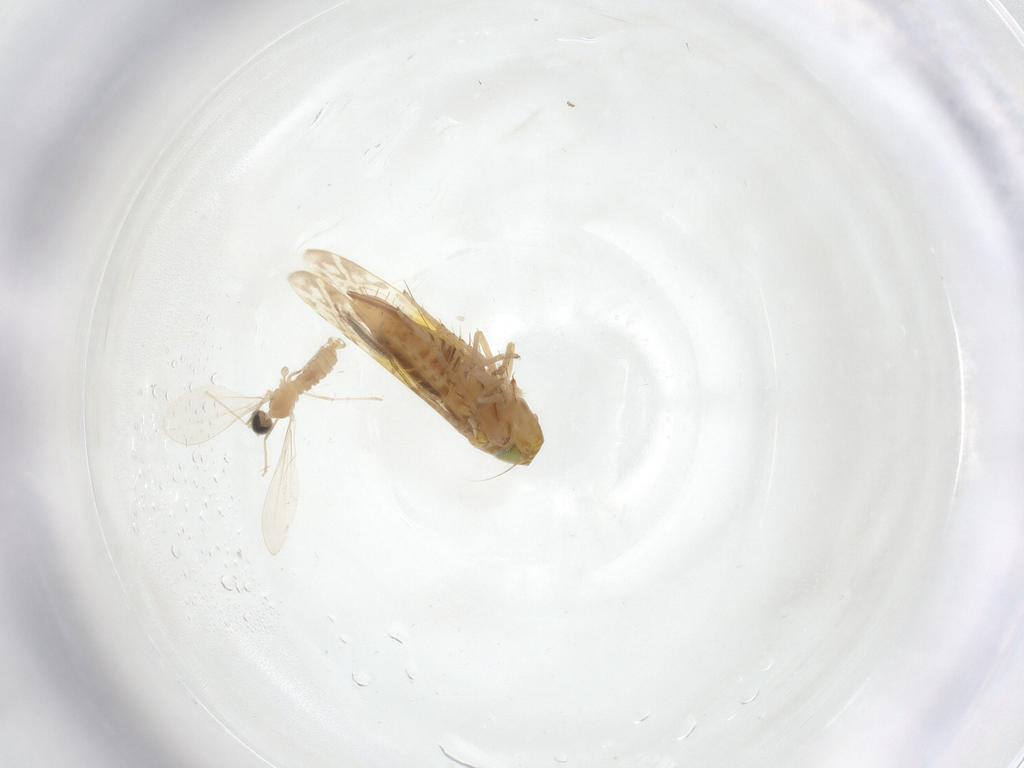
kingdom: Animalia
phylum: Arthropoda
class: Insecta
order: Diptera
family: Cecidomyiidae
